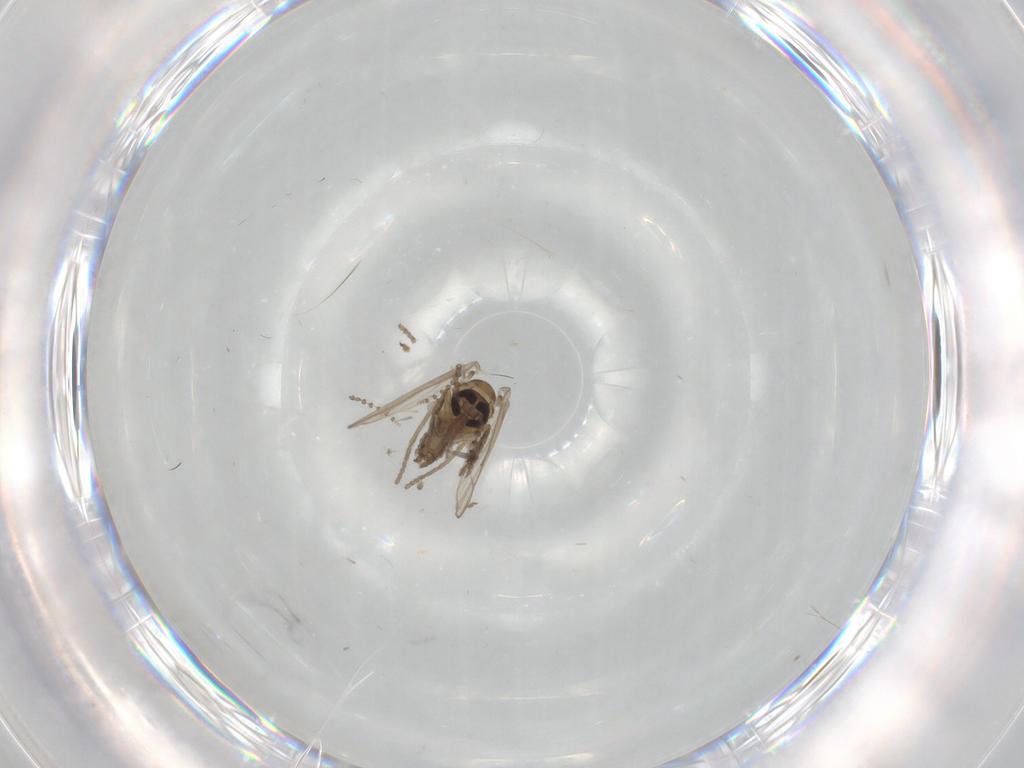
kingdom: Animalia
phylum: Arthropoda
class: Insecta
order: Diptera
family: Psychodidae
